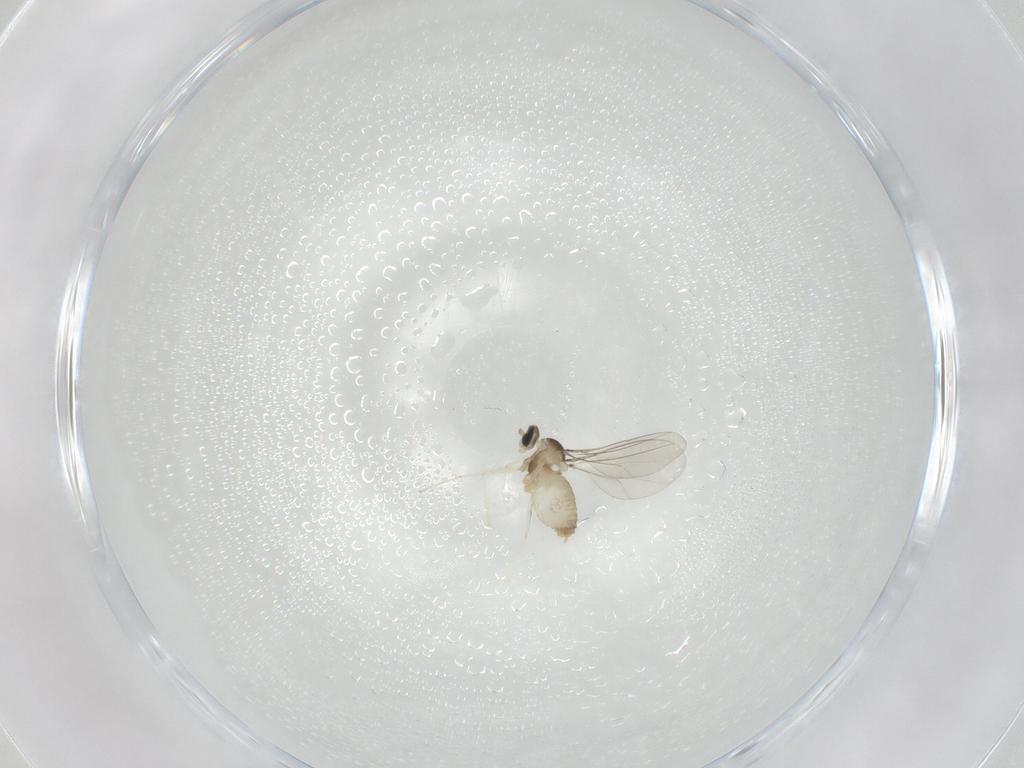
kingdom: Animalia
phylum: Arthropoda
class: Insecta
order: Diptera
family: Cecidomyiidae
